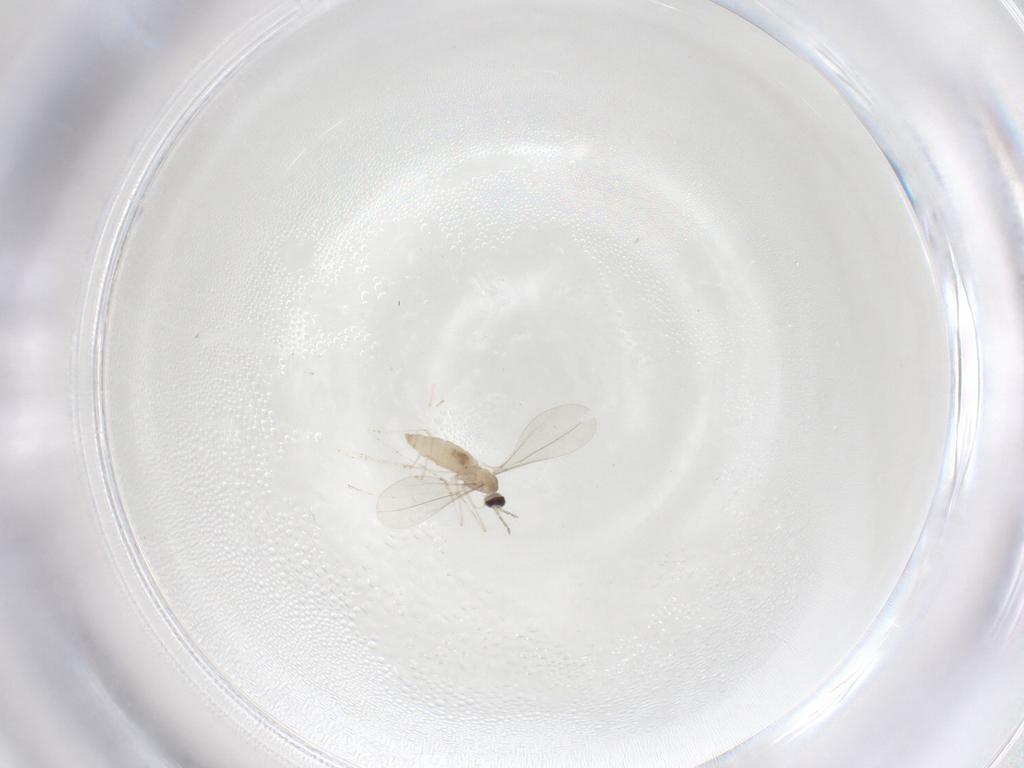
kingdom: Animalia
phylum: Arthropoda
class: Insecta
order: Diptera
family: Cecidomyiidae
